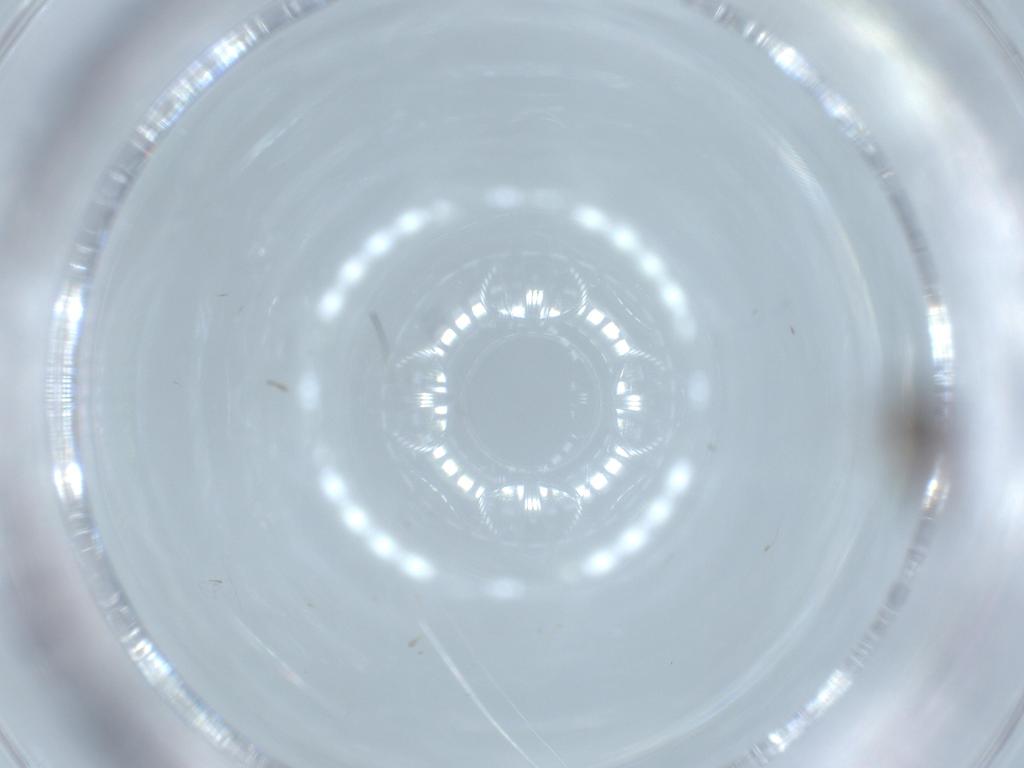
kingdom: Animalia
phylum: Arthropoda
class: Insecta
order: Diptera
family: Ceratopogonidae
